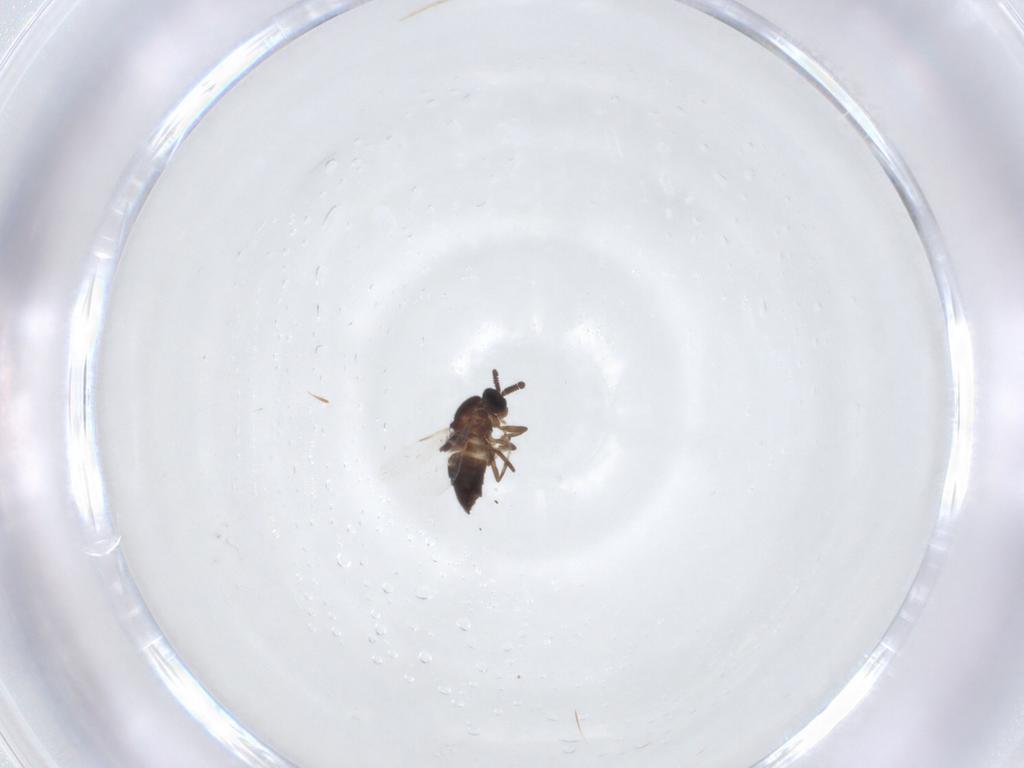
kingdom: Animalia
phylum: Arthropoda
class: Insecta
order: Diptera
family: Scatopsidae
